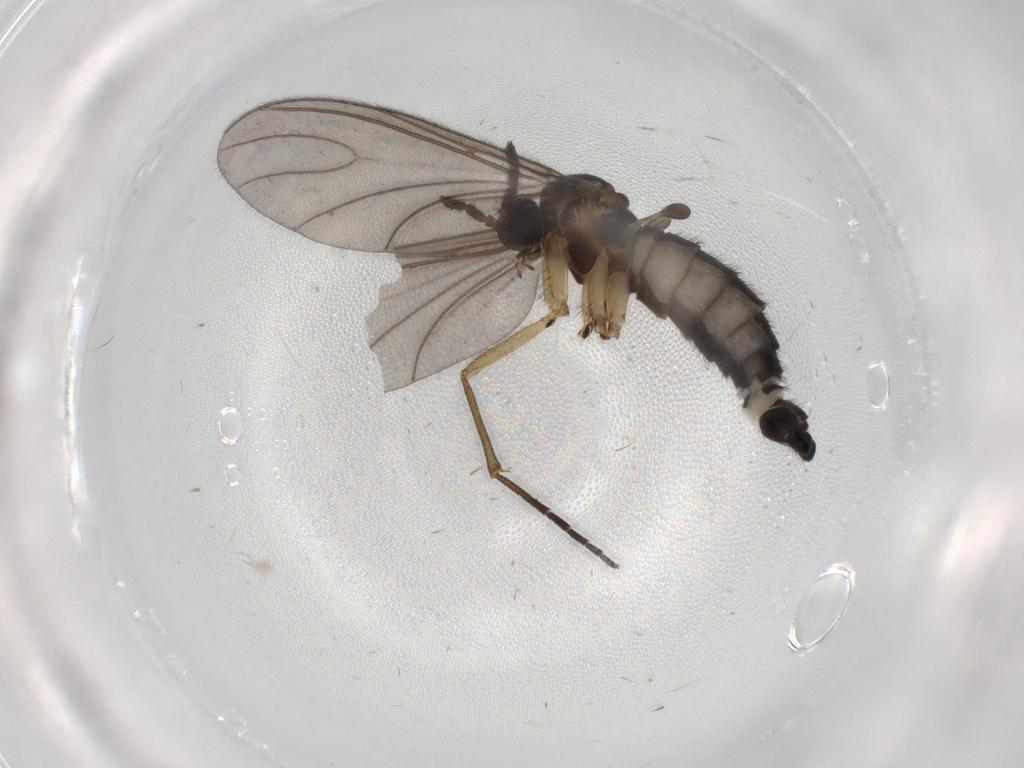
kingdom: Animalia
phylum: Arthropoda
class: Insecta
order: Diptera
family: Sciaridae
